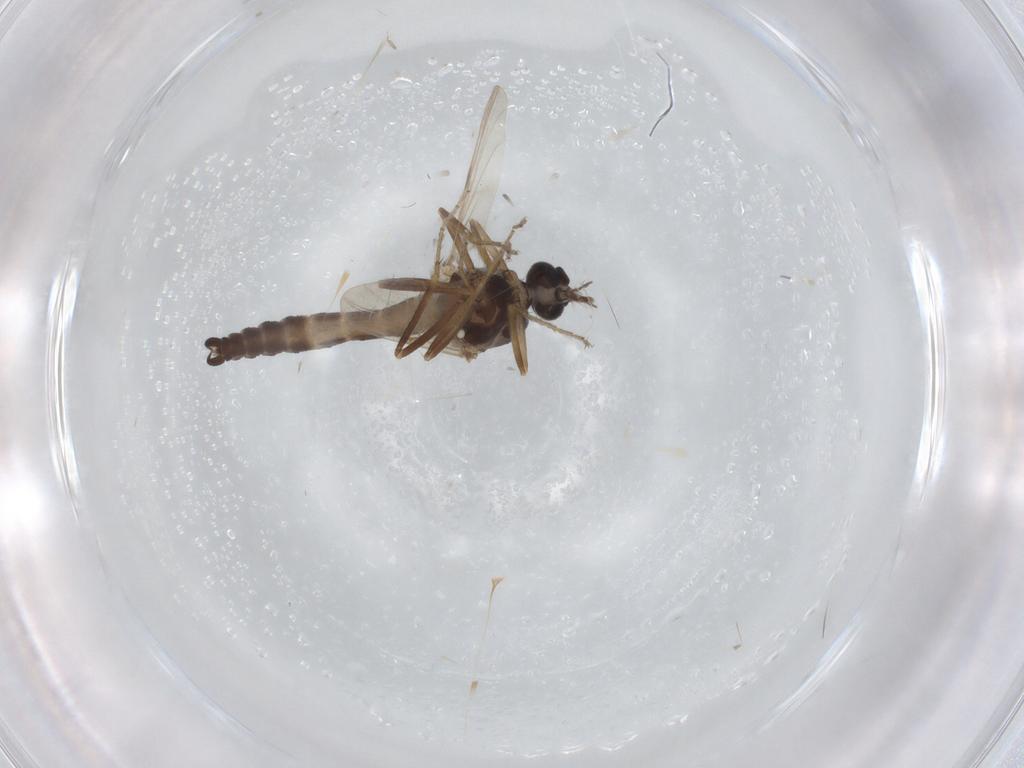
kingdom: Animalia
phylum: Arthropoda
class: Insecta
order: Diptera
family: Ceratopogonidae
